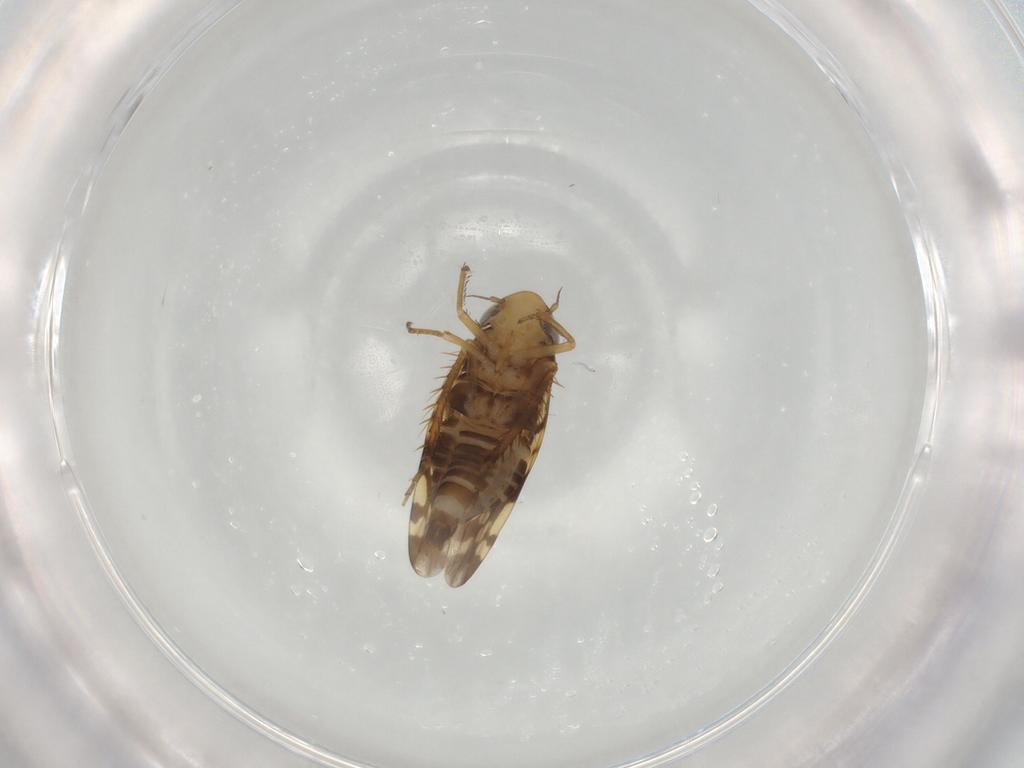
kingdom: Animalia
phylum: Arthropoda
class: Insecta
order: Hemiptera
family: Cicadellidae
